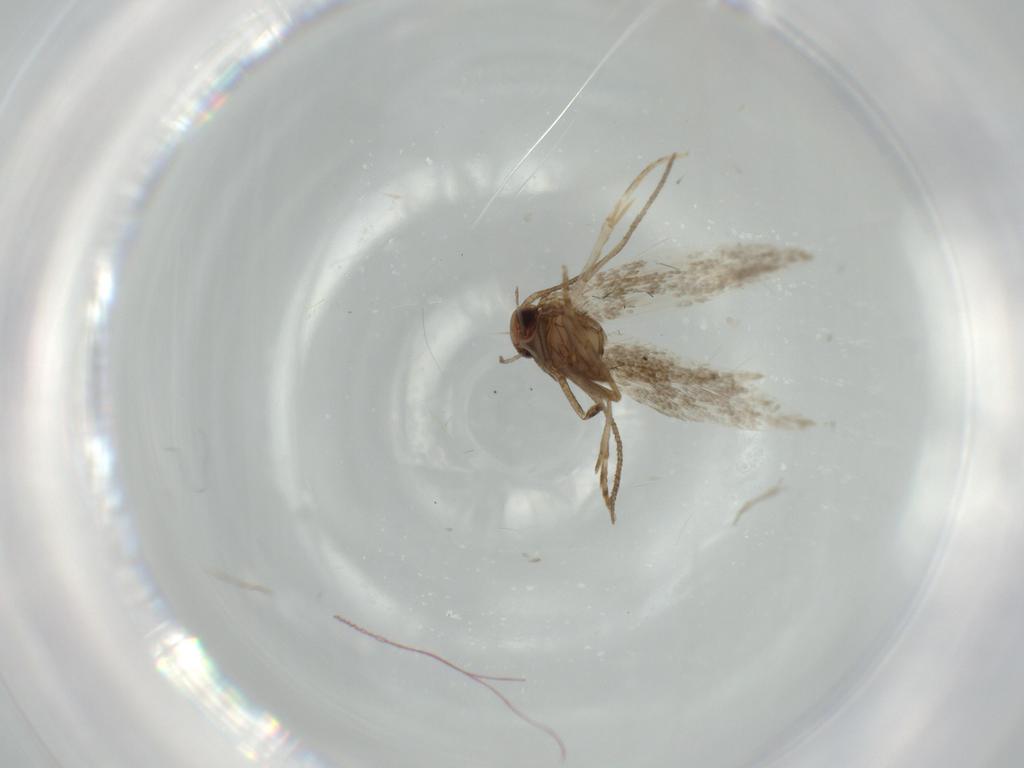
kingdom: Animalia
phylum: Arthropoda
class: Insecta
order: Lepidoptera
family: Elachistidae
